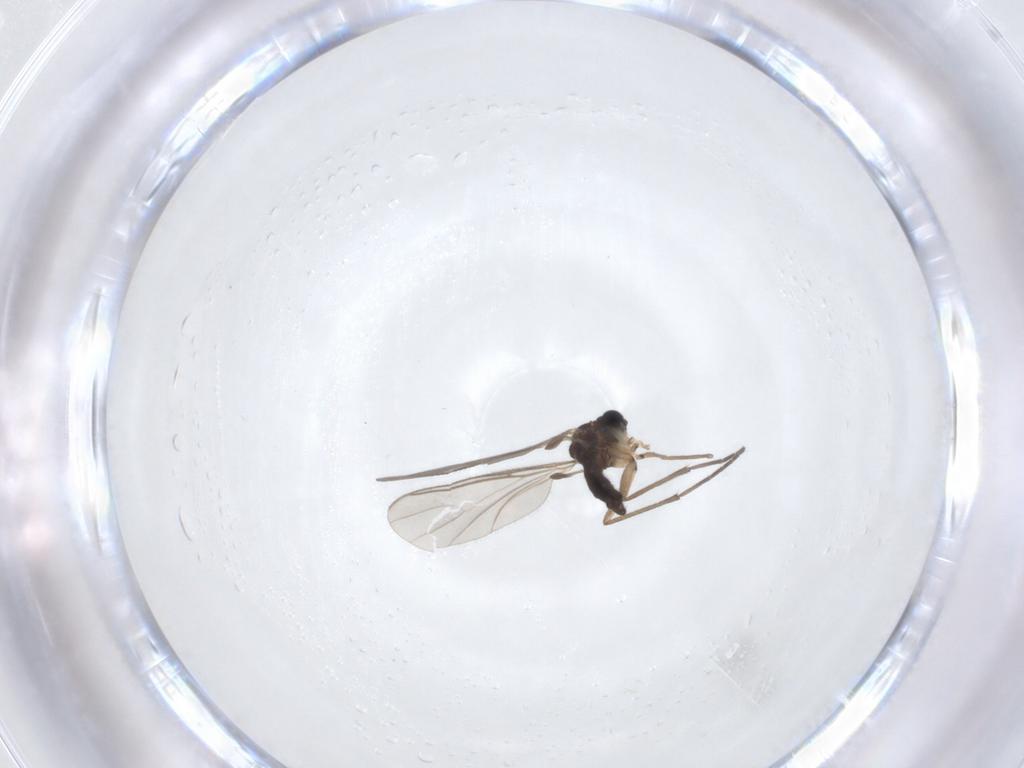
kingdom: Animalia
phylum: Arthropoda
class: Insecta
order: Diptera
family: Sciaridae
